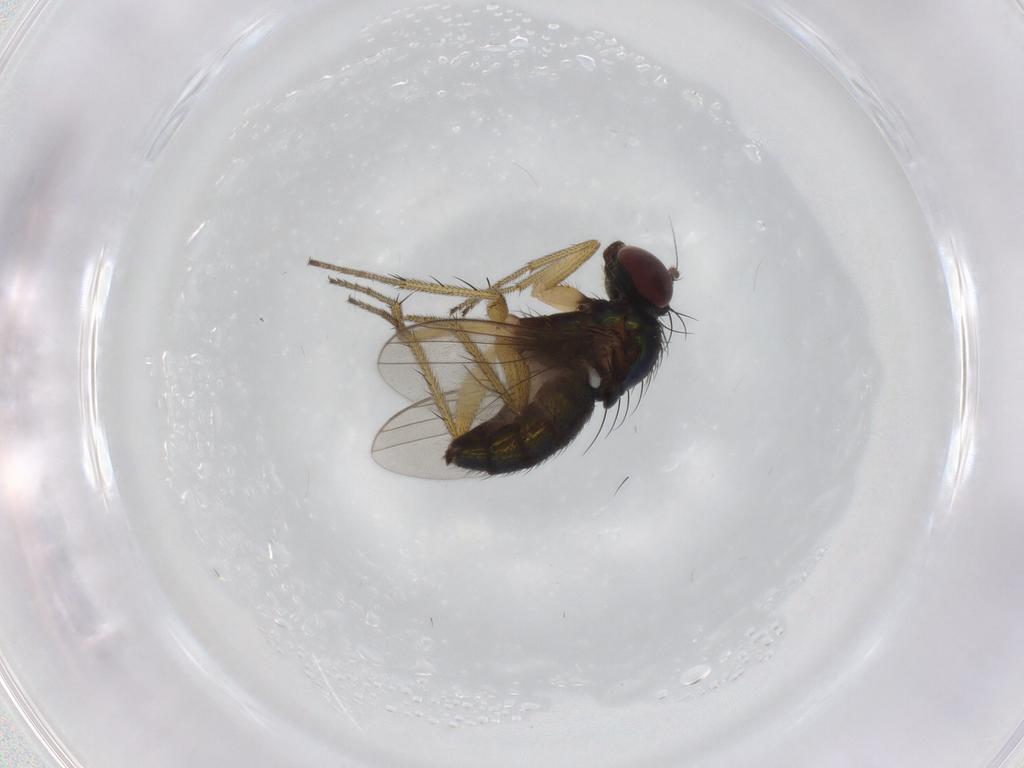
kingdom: Animalia
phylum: Arthropoda
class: Insecta
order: Diptera
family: Dolichopodidae
